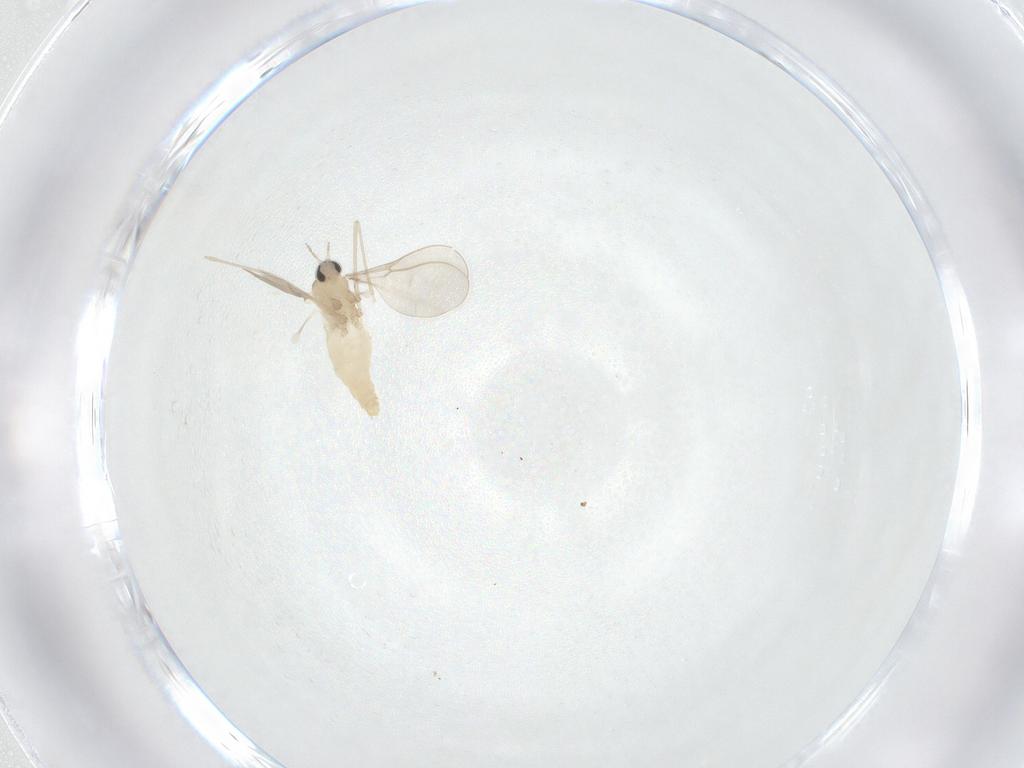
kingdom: Animalia
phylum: Arthropoda
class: Insecta
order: Diptera
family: Cecidomyiidae
